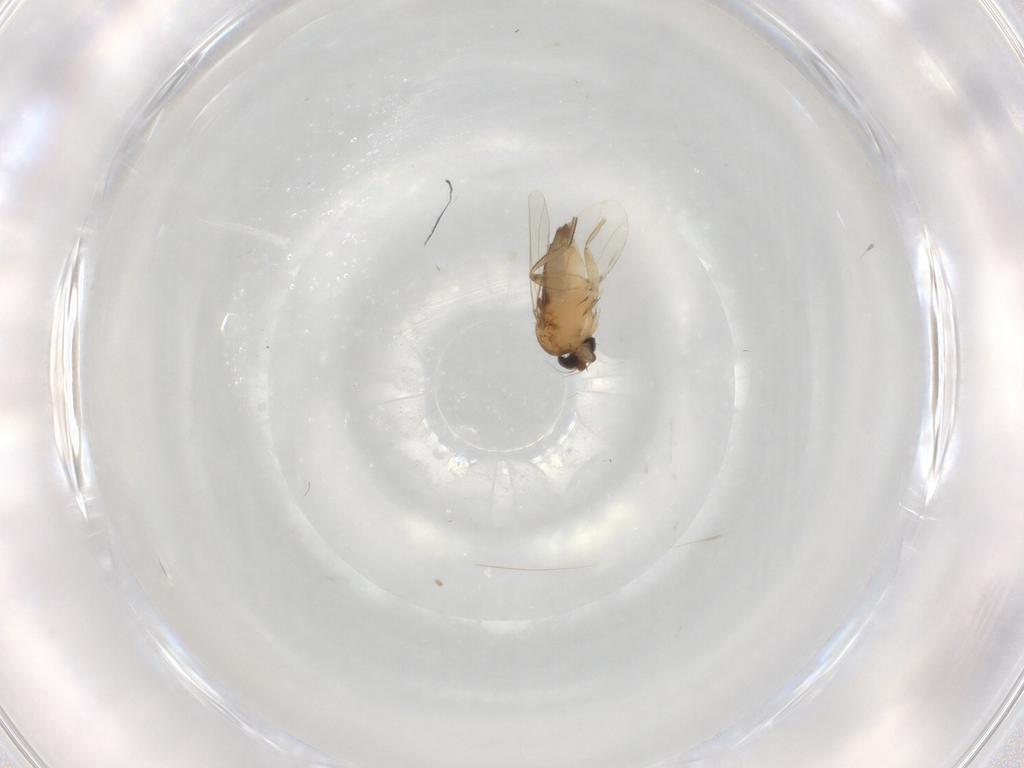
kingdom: Animalia
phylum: Arthropoda
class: Insecta
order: Diptera
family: Phoridae
